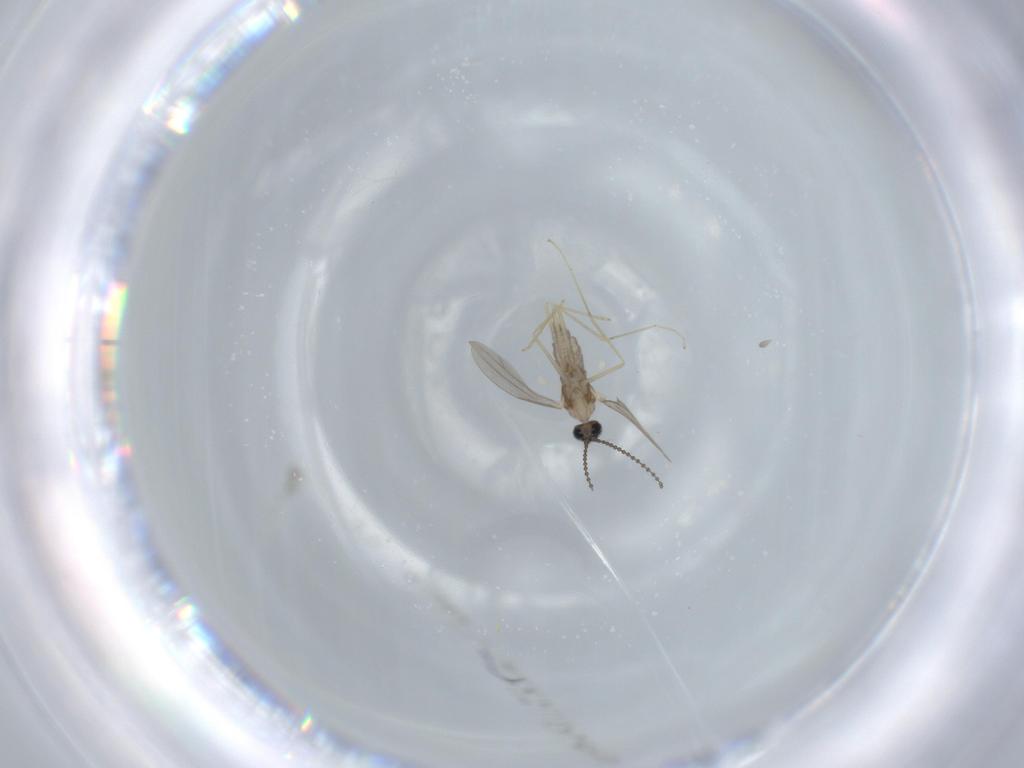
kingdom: Animalia
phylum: Arthropoda
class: Insecta
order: Diptera
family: Cecidomyiidae
